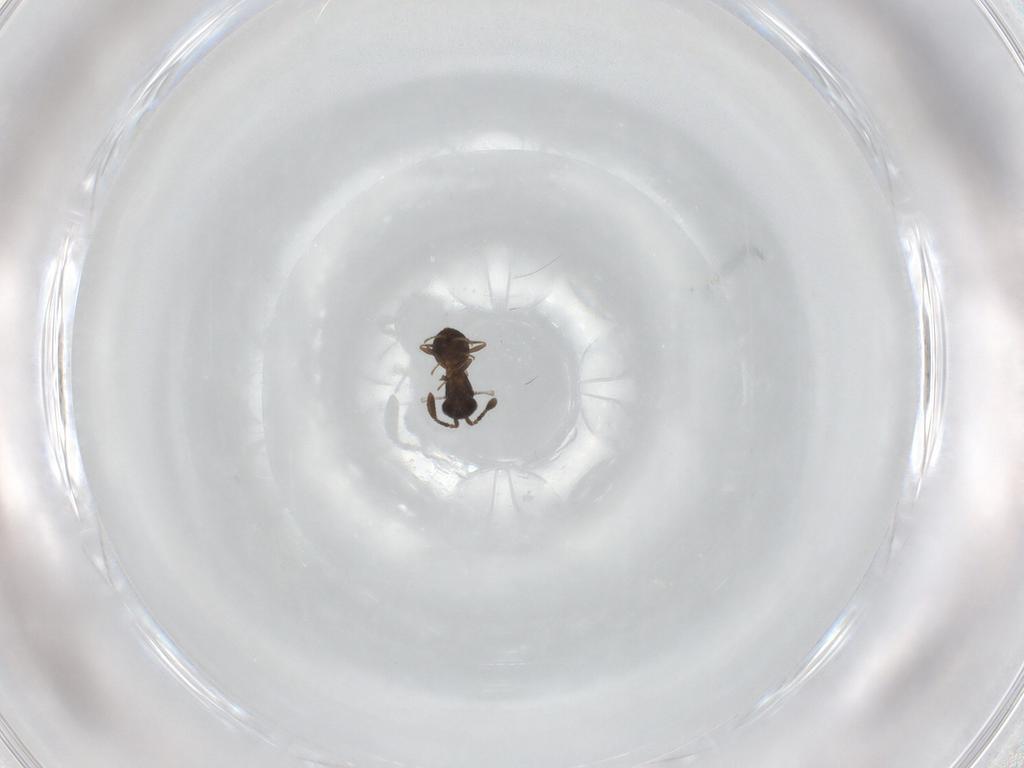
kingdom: Animalia
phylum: Arthropoda
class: Insecta
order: Hymenoptera
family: Scelionidae
